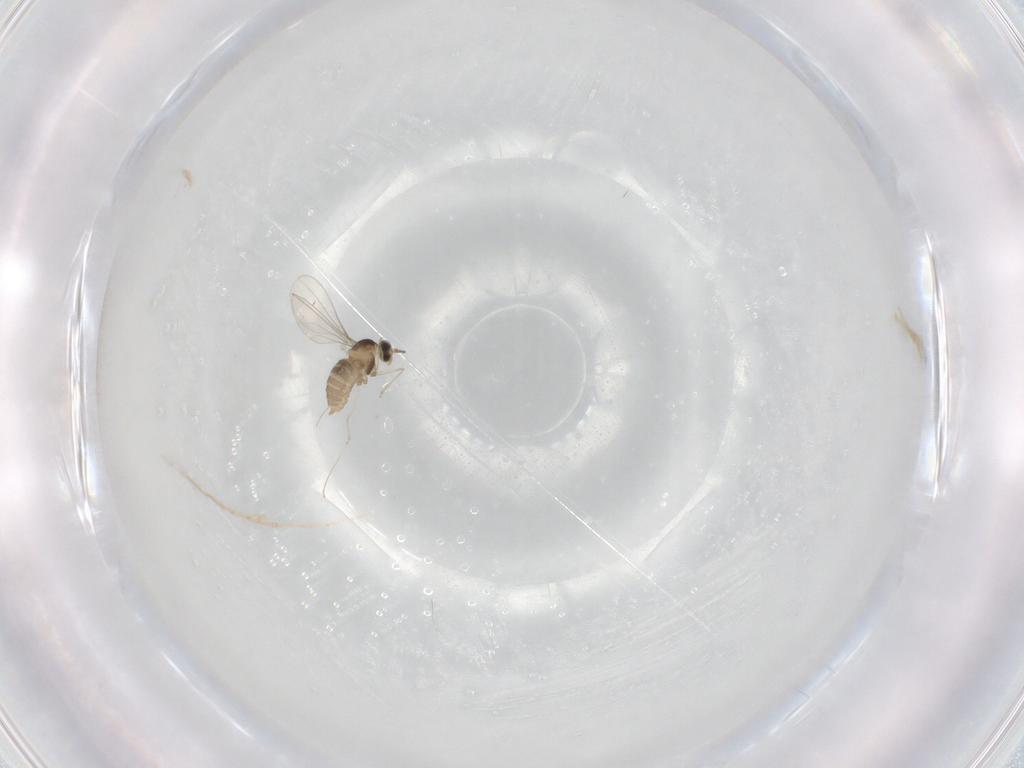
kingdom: Animalia
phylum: Arthropoda
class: Insecta
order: Diptera
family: Cecidomyiidae
